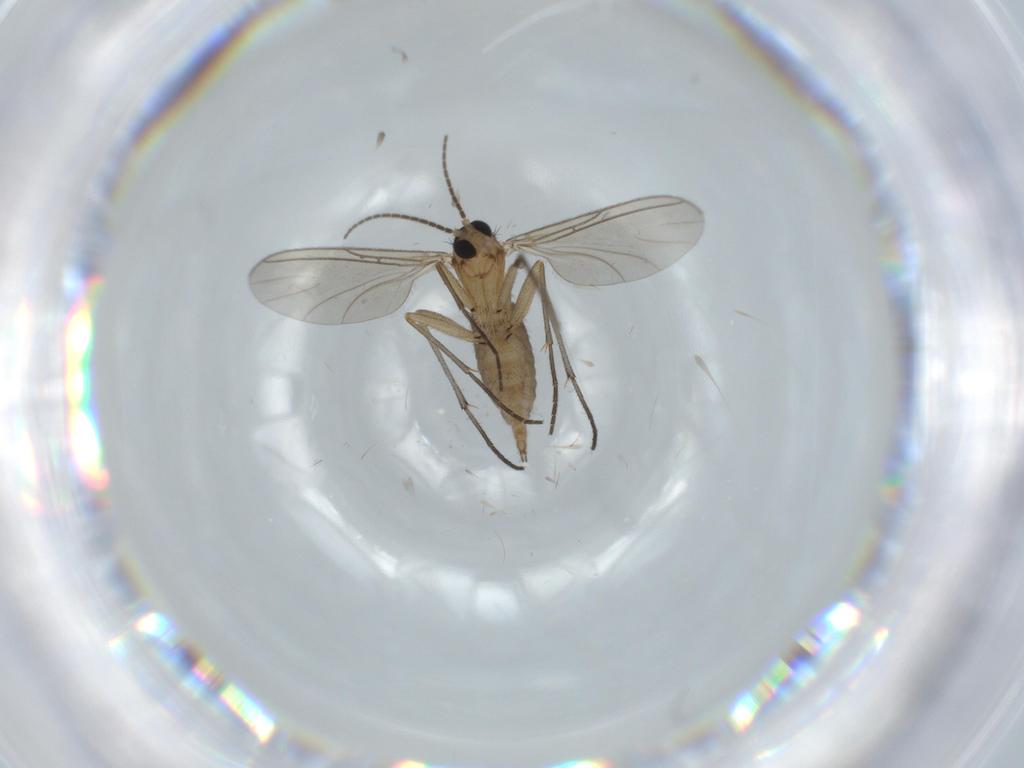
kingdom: Animalia
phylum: Arthropoda
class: Insecta
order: Diptera
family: Sciaridae
